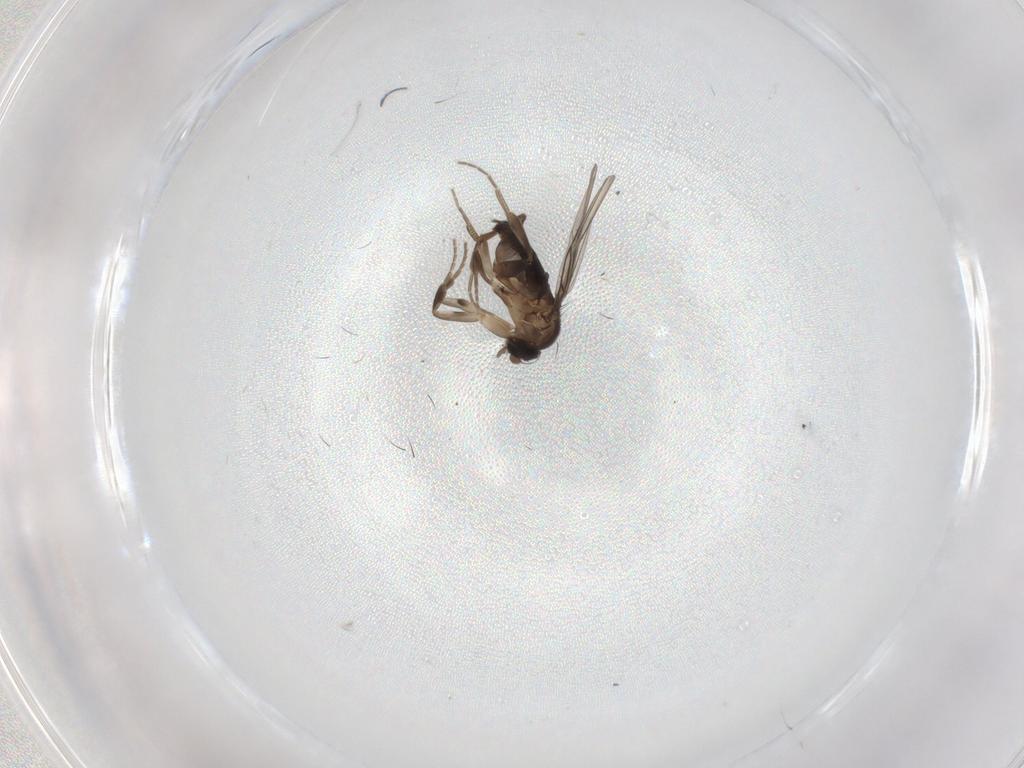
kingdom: Animalia
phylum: Arthropoda
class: Insecta
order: Diptera
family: Phoridae
